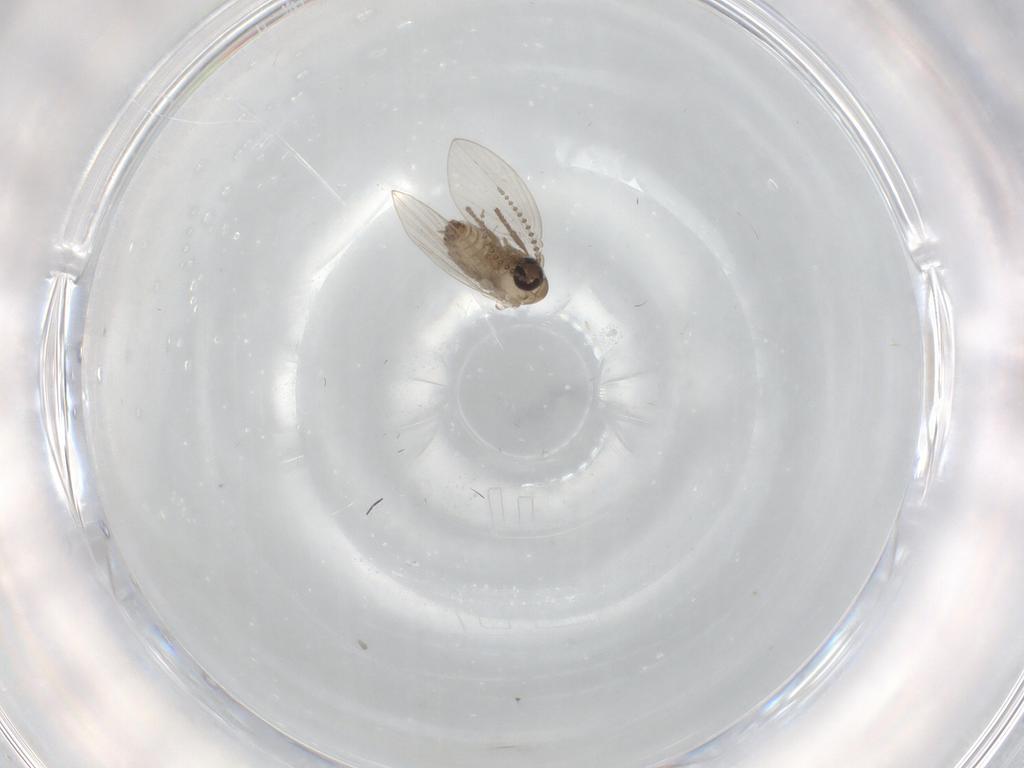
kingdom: Animalia
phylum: Arthropoda
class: Insecta
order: Diptera
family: Psychodidae
